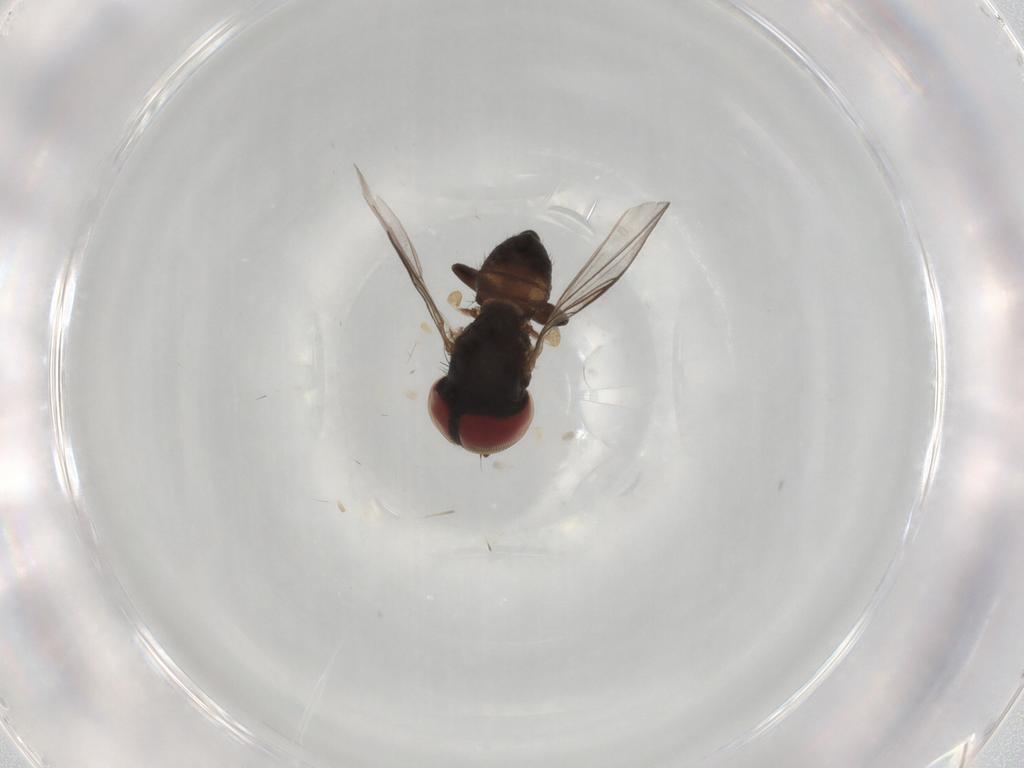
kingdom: Animalia
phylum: Arthropoda
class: Insecta
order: Diptera
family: Pipunculidae
